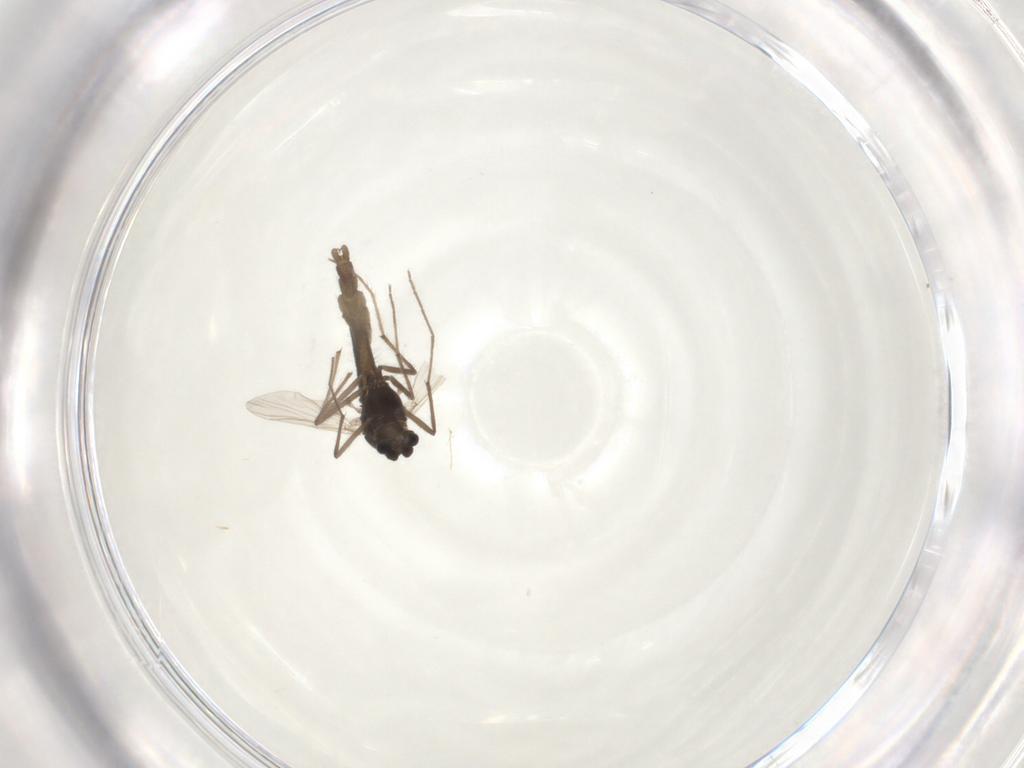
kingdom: Animalia
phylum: Arthropoda
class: Insecta
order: Diptera
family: Chironomidae
